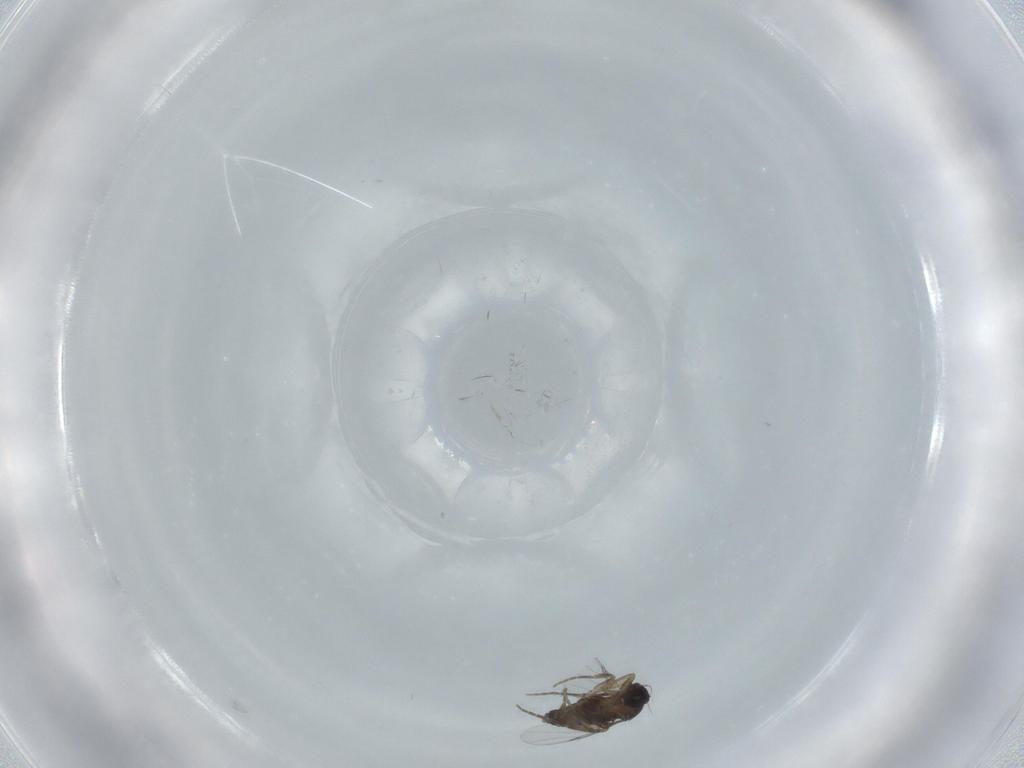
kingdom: Animalia
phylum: Arthropoda
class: Insecta
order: Diptera
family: Phoridae
